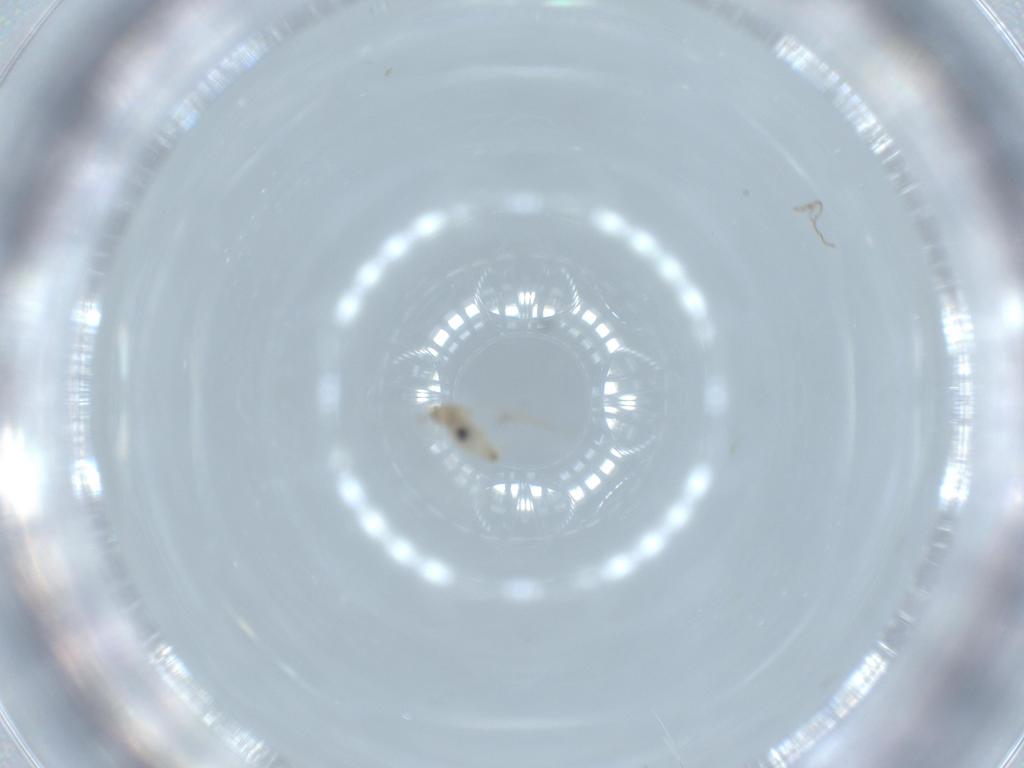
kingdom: Animalia
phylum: Arthropoda
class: Insecta
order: Diptera
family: Cecidomyiidae
